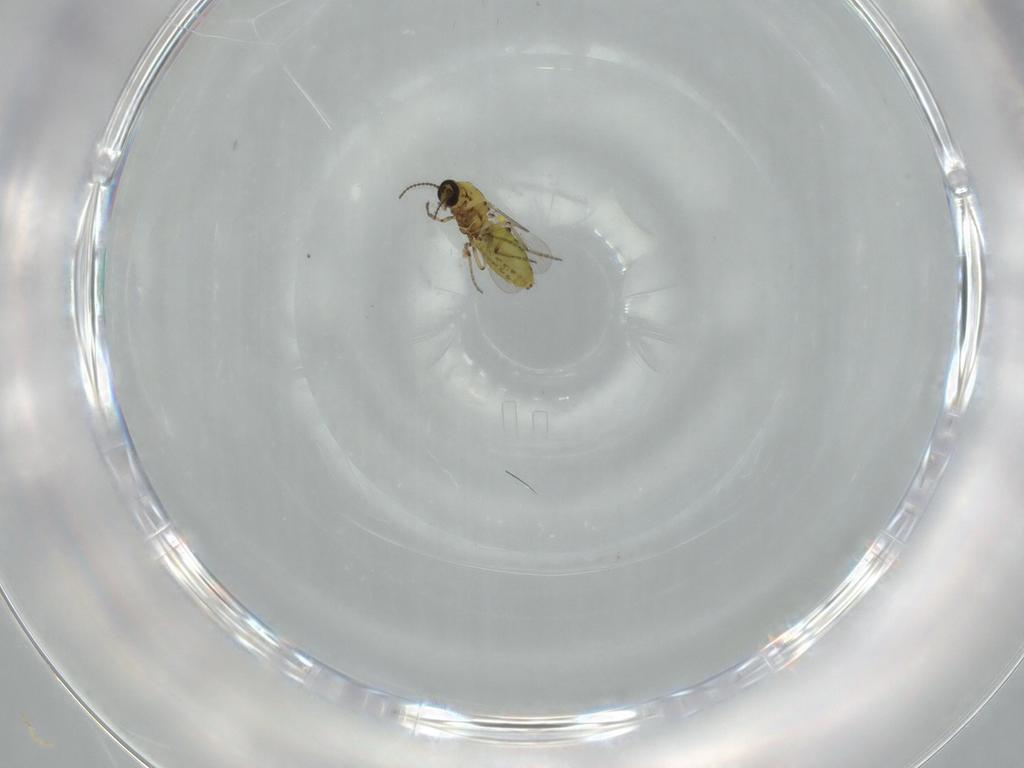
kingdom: Animalia
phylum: Arthropoda
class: Insecta
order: Diptera
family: Ceratopogonidae
